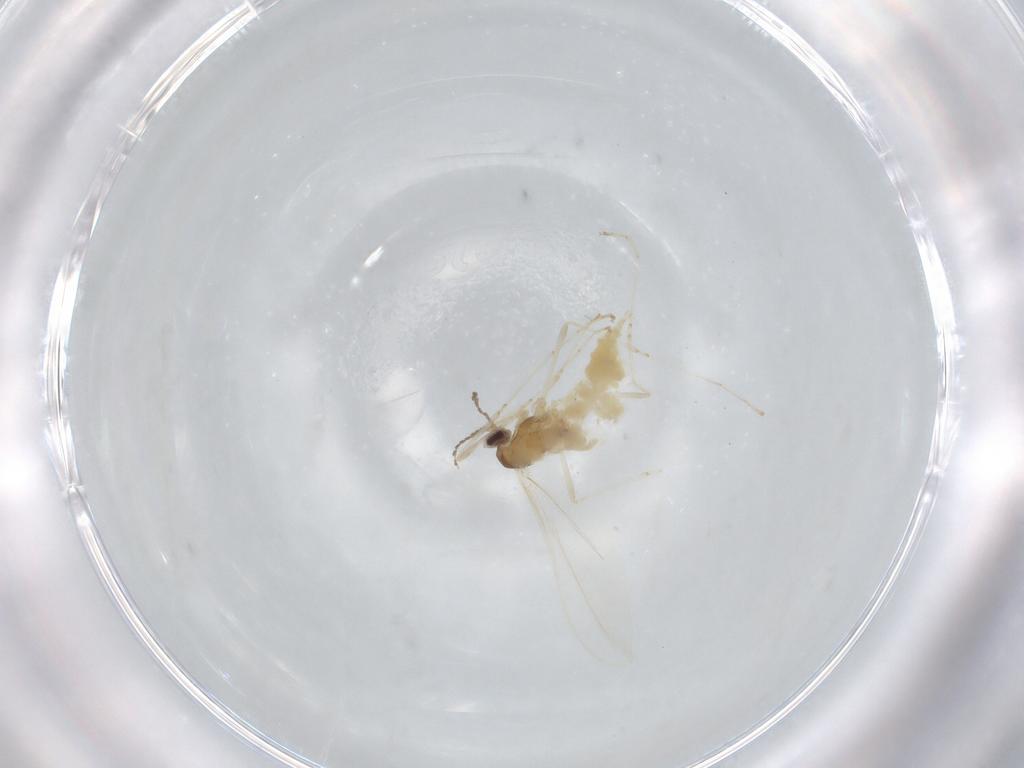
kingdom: Animalia
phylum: Arthropoda
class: Insecta
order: Diptera
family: Cecidomyiidae
